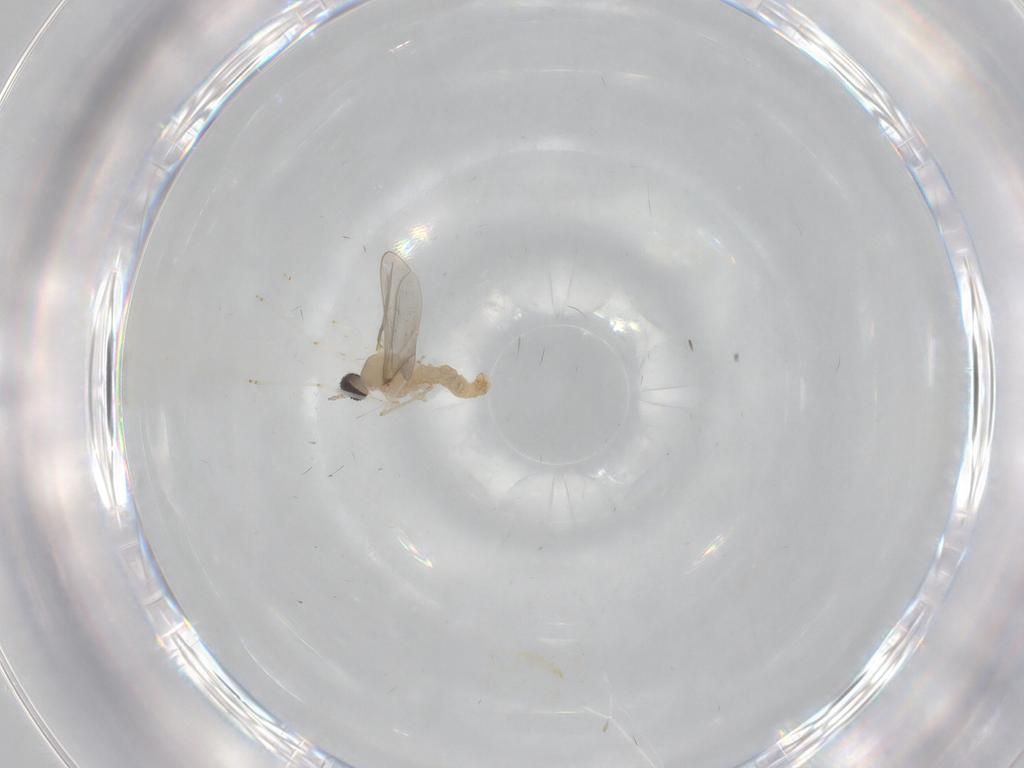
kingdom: Animalia
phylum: Arthropoda
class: Insecta
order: Diptera
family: Cecidomyiidae
